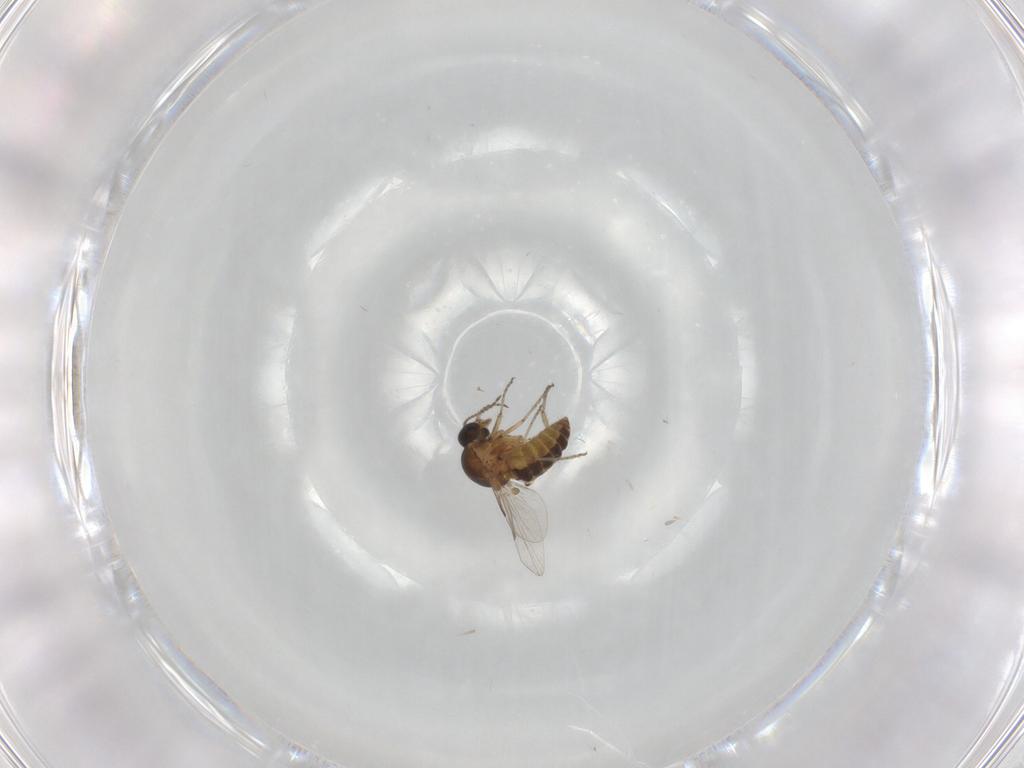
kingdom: Animalia
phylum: Arthropoda
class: Insecta
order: Diptera
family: Ceratopogonidae
